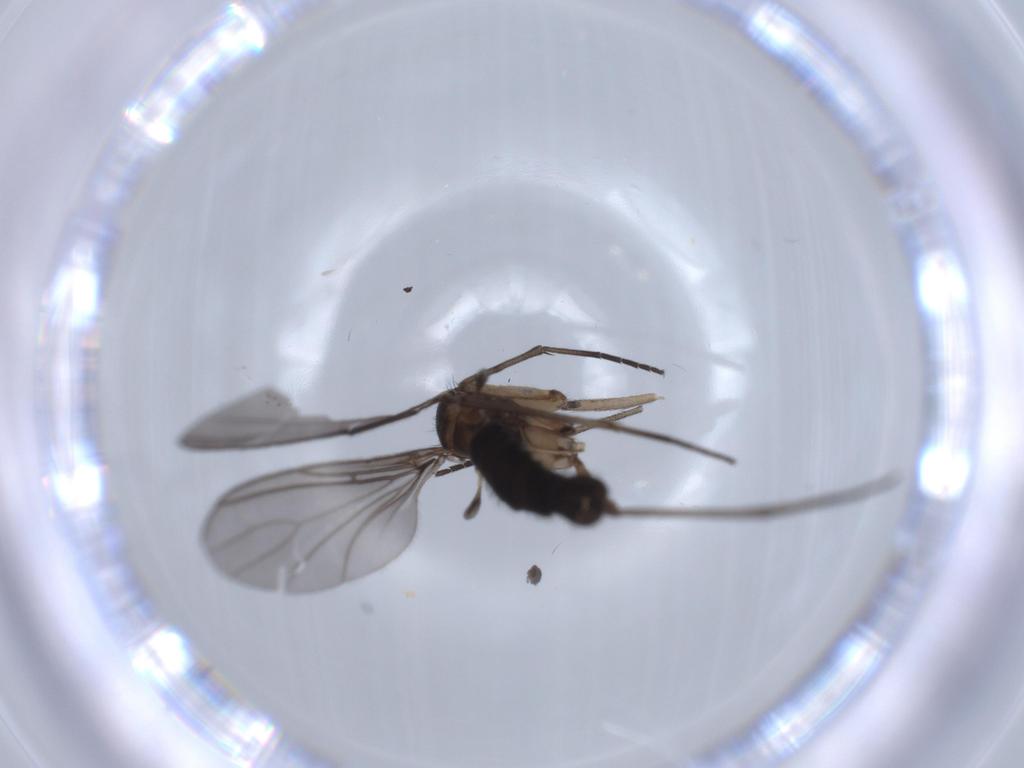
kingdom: Animalia
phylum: Arthropoda
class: Insecta
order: Diptera
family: Sciaridae
